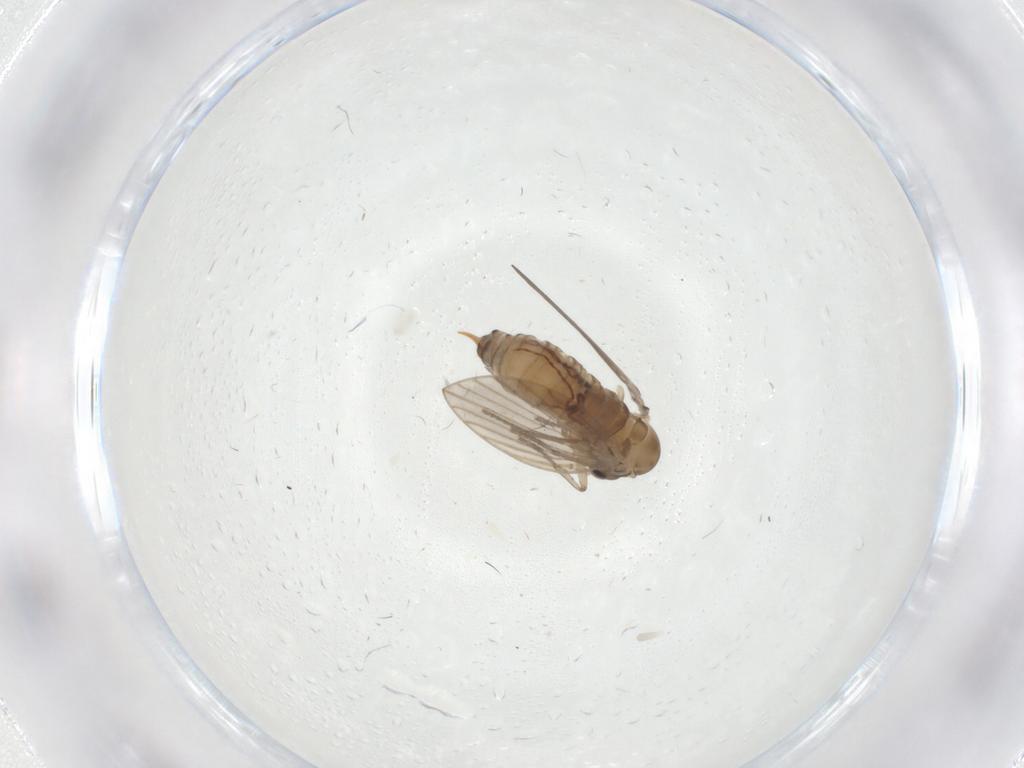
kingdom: Animalia
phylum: Arthropoda
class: Insecta
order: Diptera
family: Psychodidae
